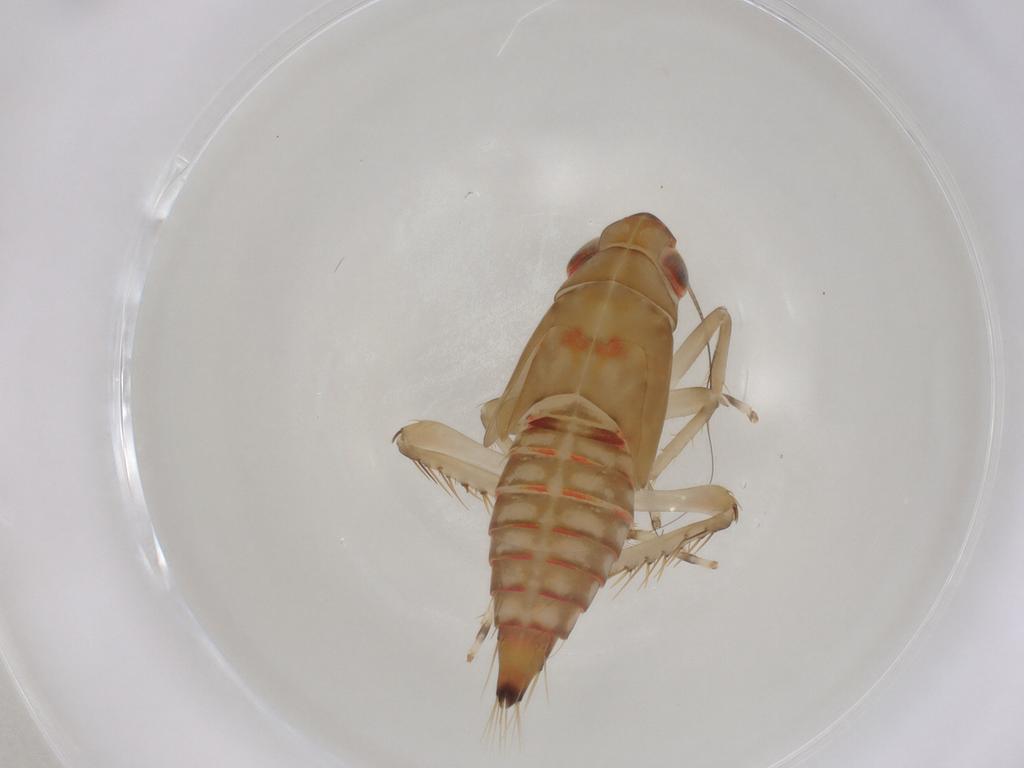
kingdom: Animalia
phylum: Arthropoda
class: Insecta
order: Hemiptera
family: Cicadellidae
